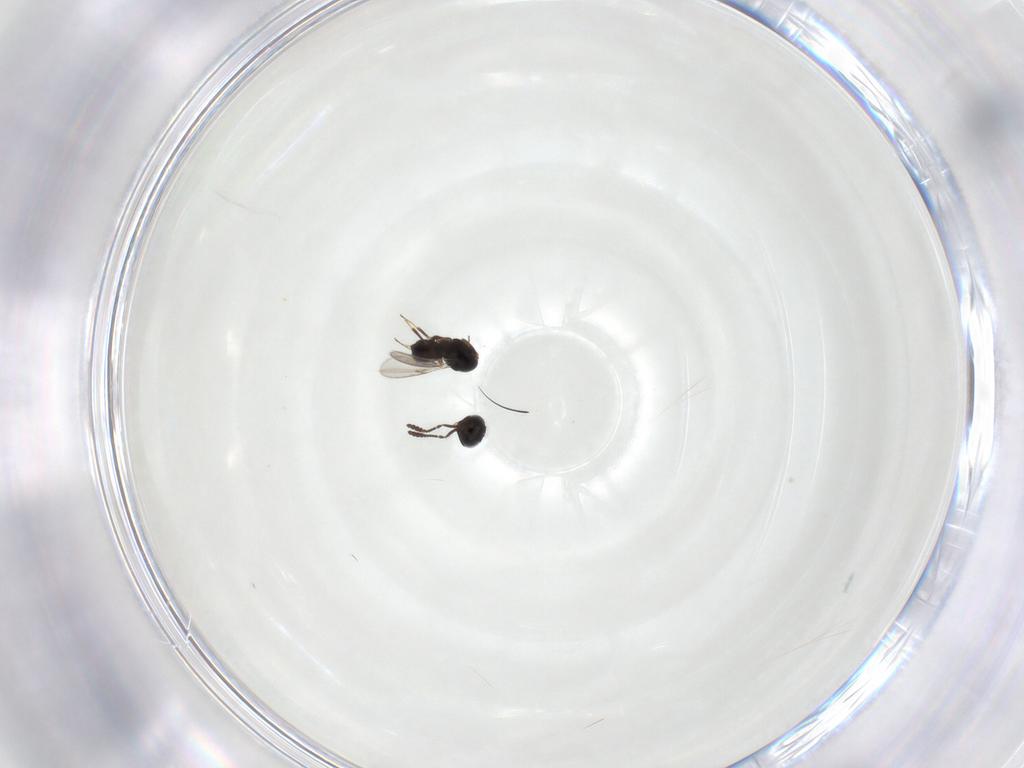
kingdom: Animalia
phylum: Arthropoda
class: Insecta
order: Hymenoptera
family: Scelionidae
